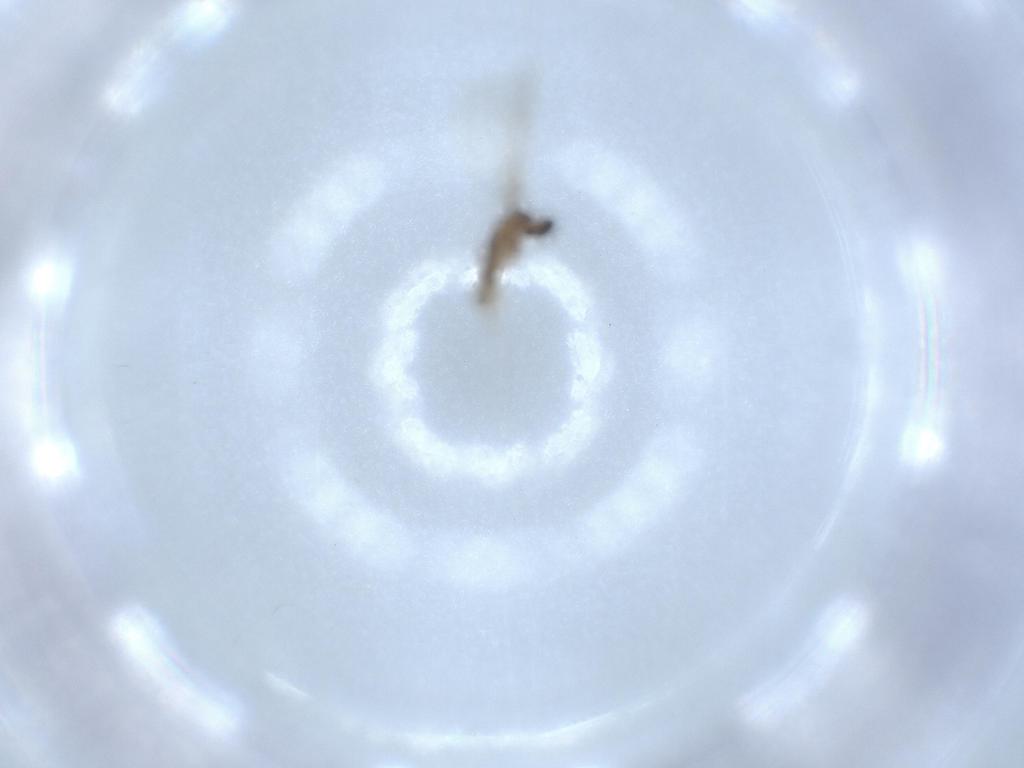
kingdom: Animalia
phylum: Arthropoda
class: Insecta
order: Diptera
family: Cecidomyiidae
